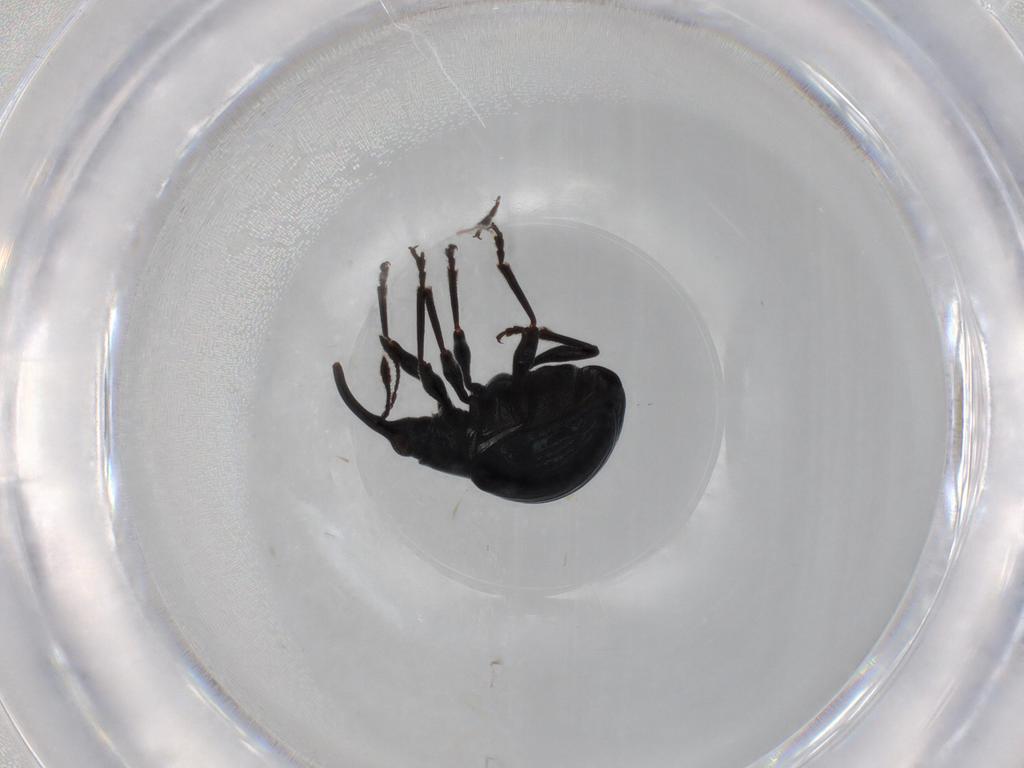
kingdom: Animalia
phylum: Arthropoda
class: Insecta
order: Coleoptera
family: Brentidae
